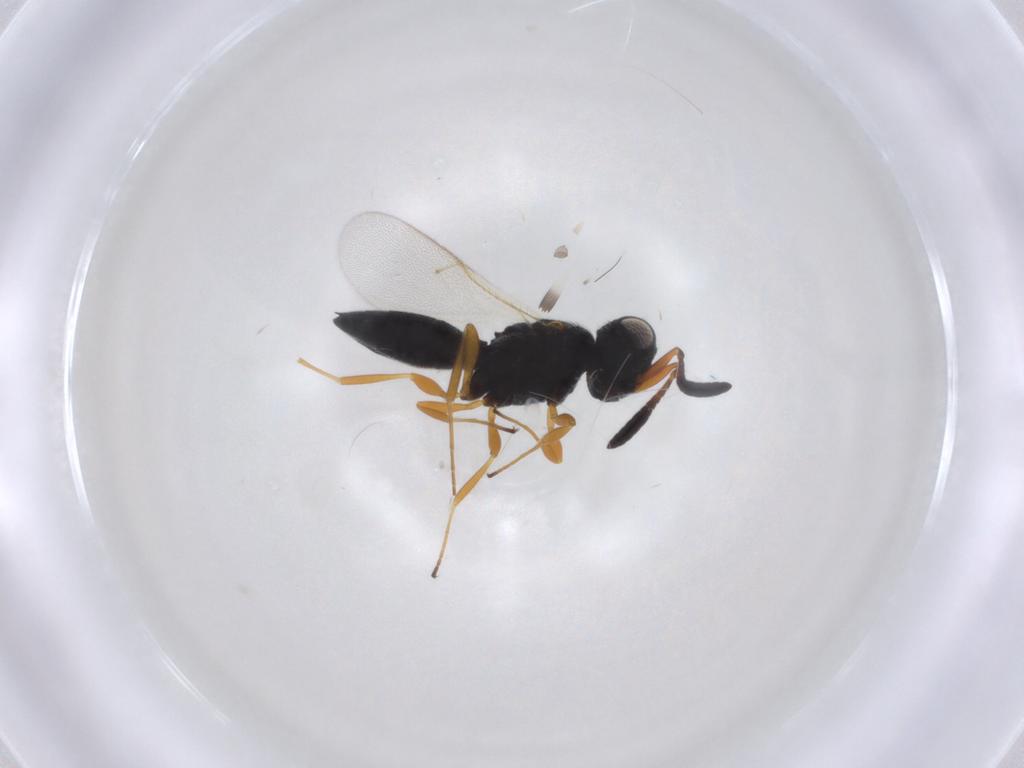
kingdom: Animalia
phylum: Arthropoda
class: Insecta
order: Hymenoptera
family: Scelionidae
